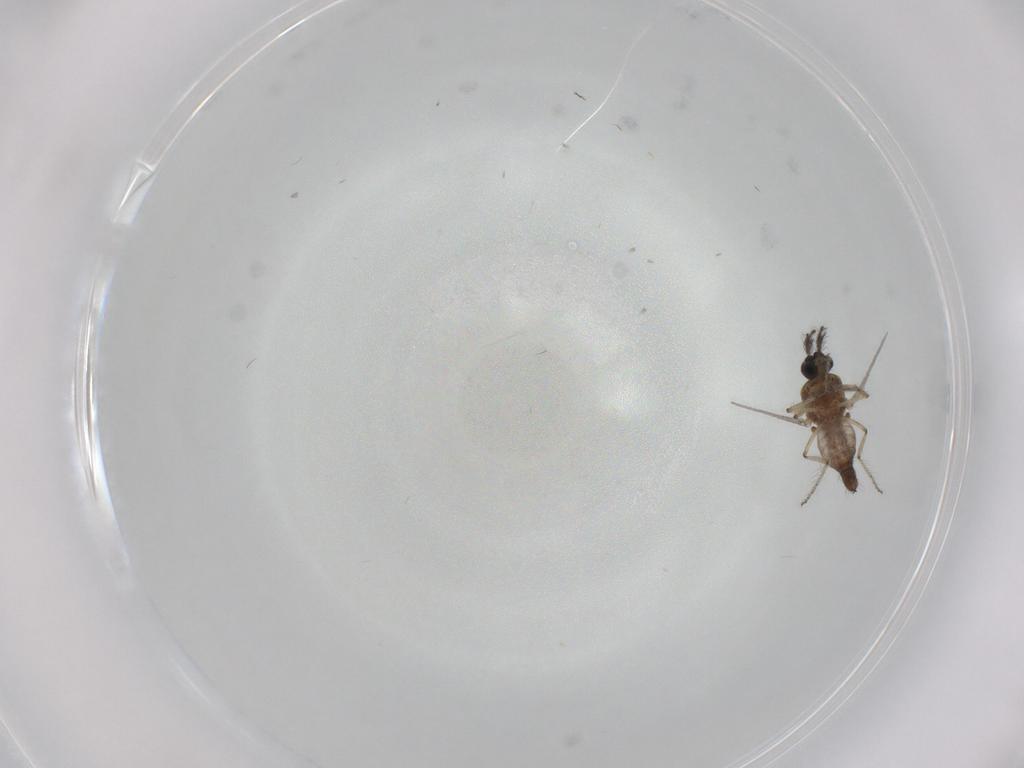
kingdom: Animalia
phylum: Arthropoda
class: Insecta
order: Diptera
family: Ceratopogonidae
